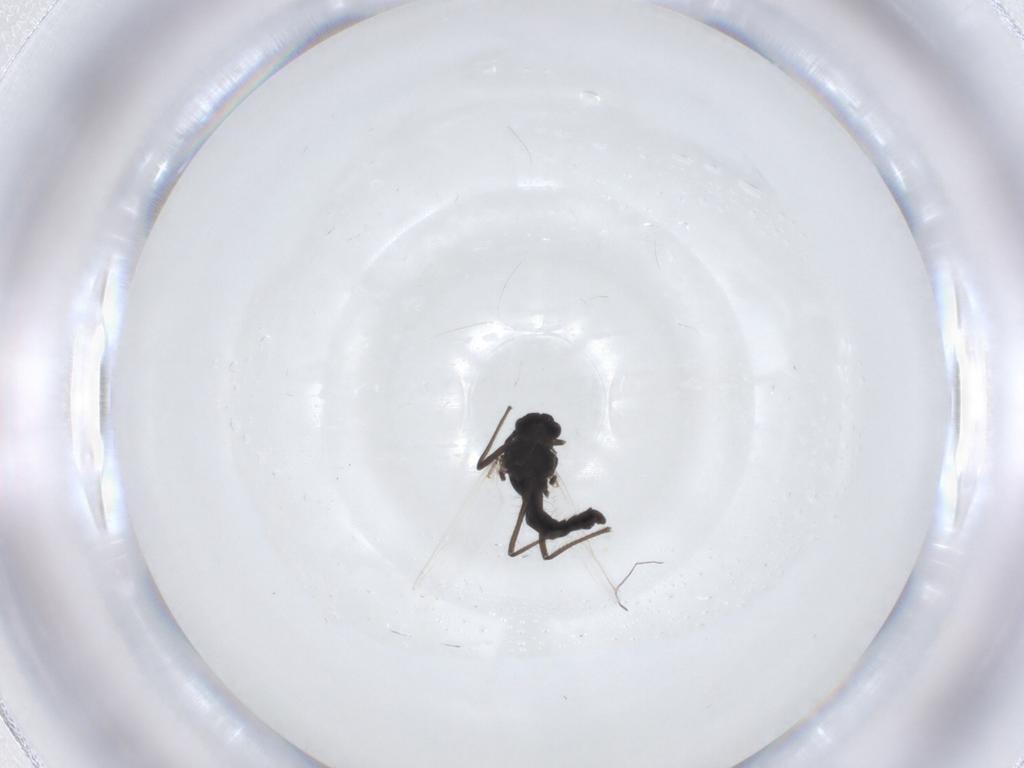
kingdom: Animalia
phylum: Arthropoda
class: Insecta
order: Diptera
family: Chironomidae
